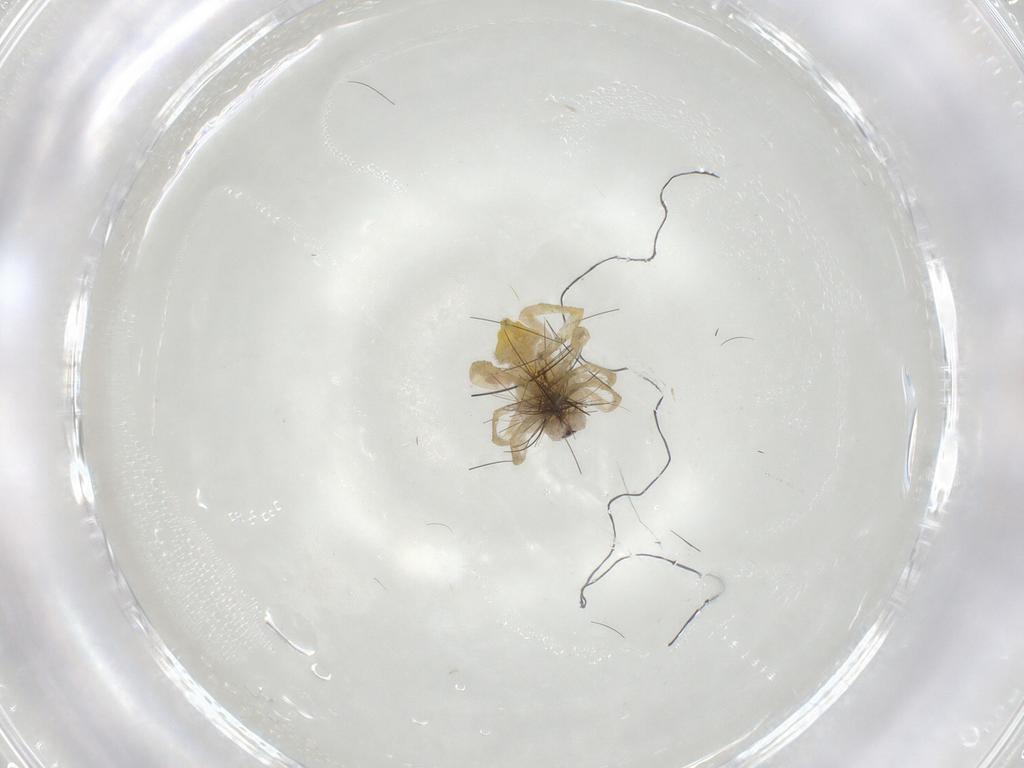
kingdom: Animalia
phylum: Arthropoda
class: Arachnida
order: Araneae
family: Clubionidae
